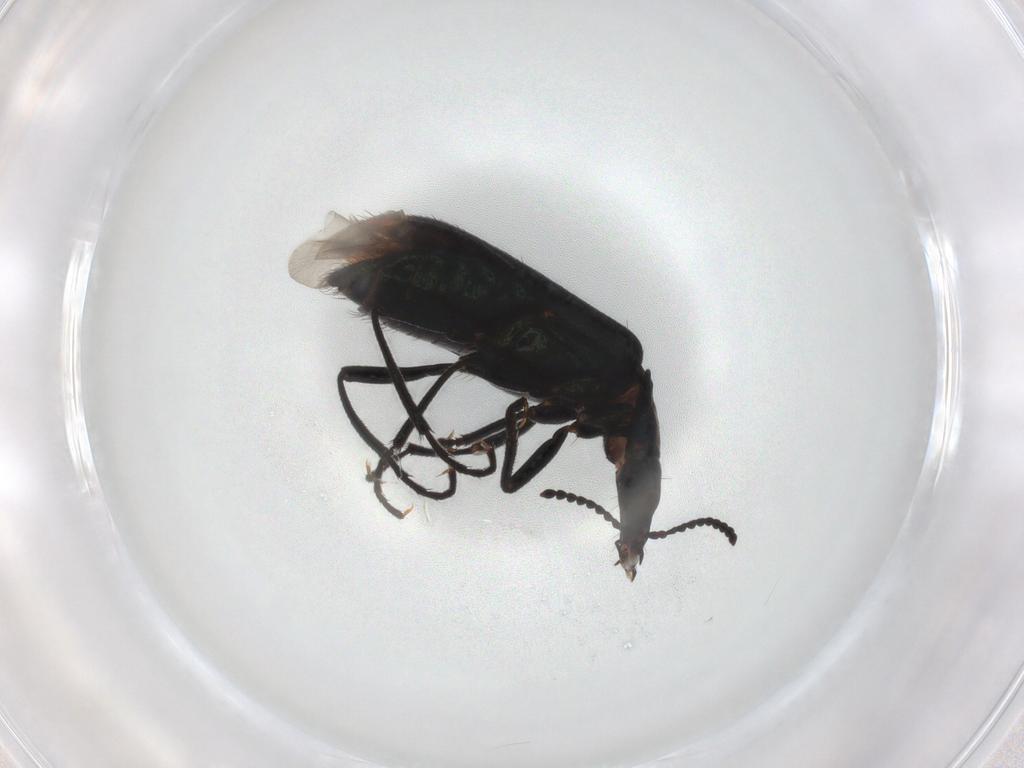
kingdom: Animalia
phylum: Arthropoda
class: Insecta
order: Coleoptera
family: Melyridae
